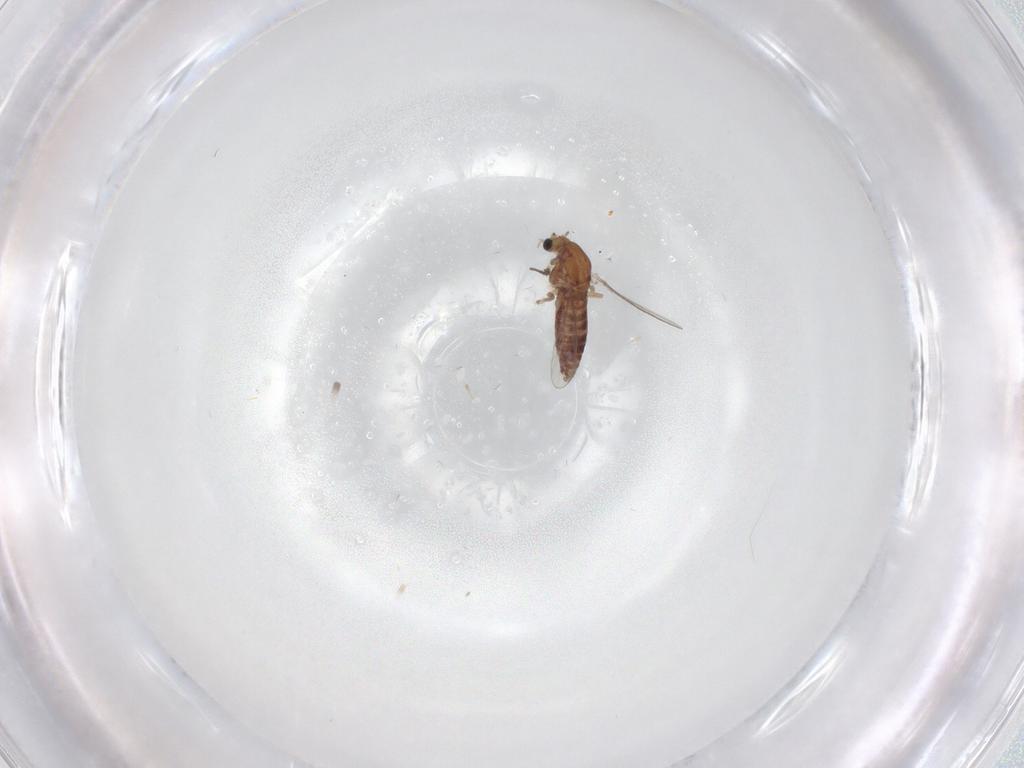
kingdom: Animalia
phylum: Arthropoda
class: Insecta
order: Diptera
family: Chironomidae
